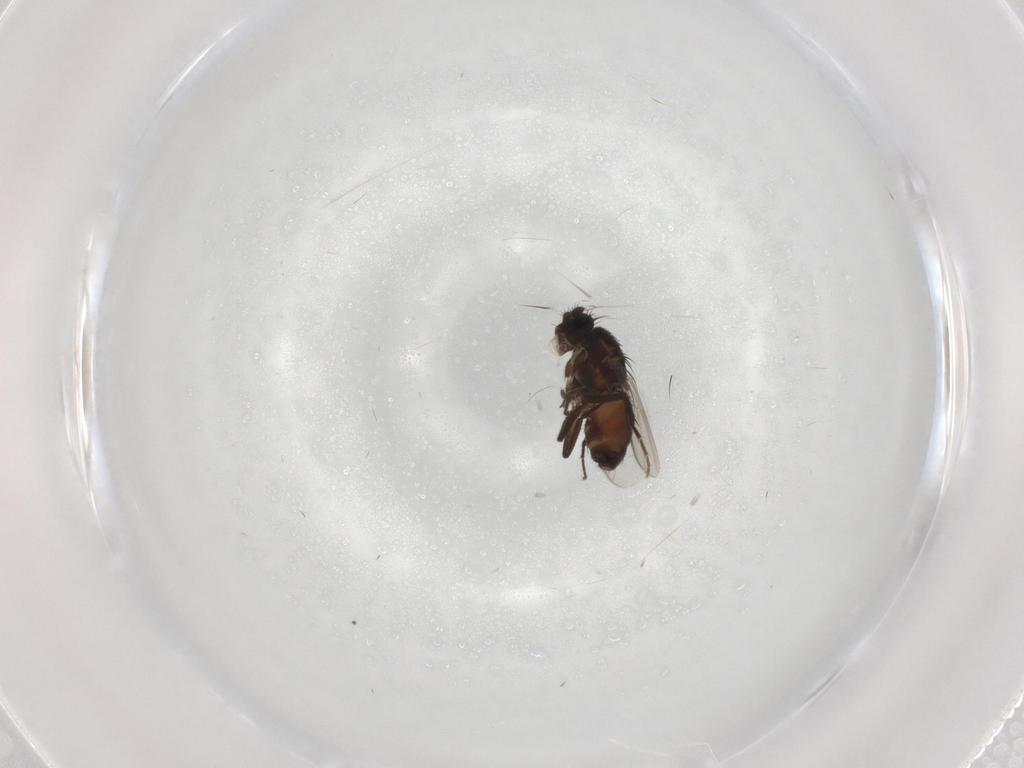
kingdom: Animalia
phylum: Arthropoda
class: Insecta
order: Diptera
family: Sphaeroceridae
